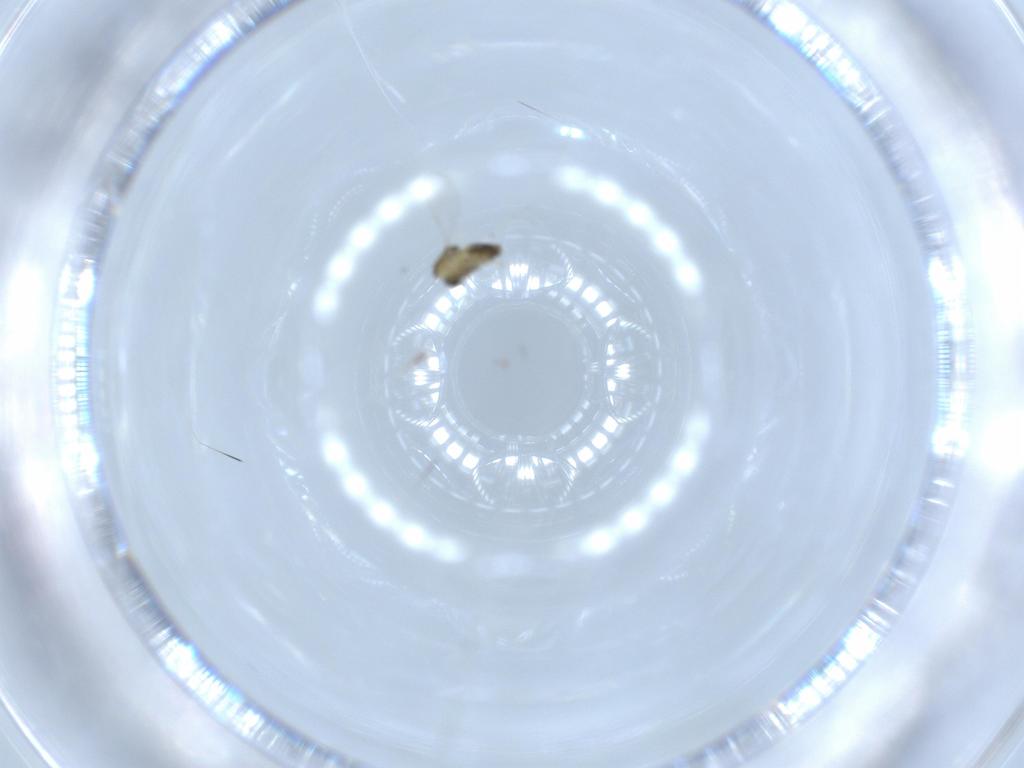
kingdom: Animalia
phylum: Arthropoda
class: Insecta
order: Diptera
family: Chironomidae
